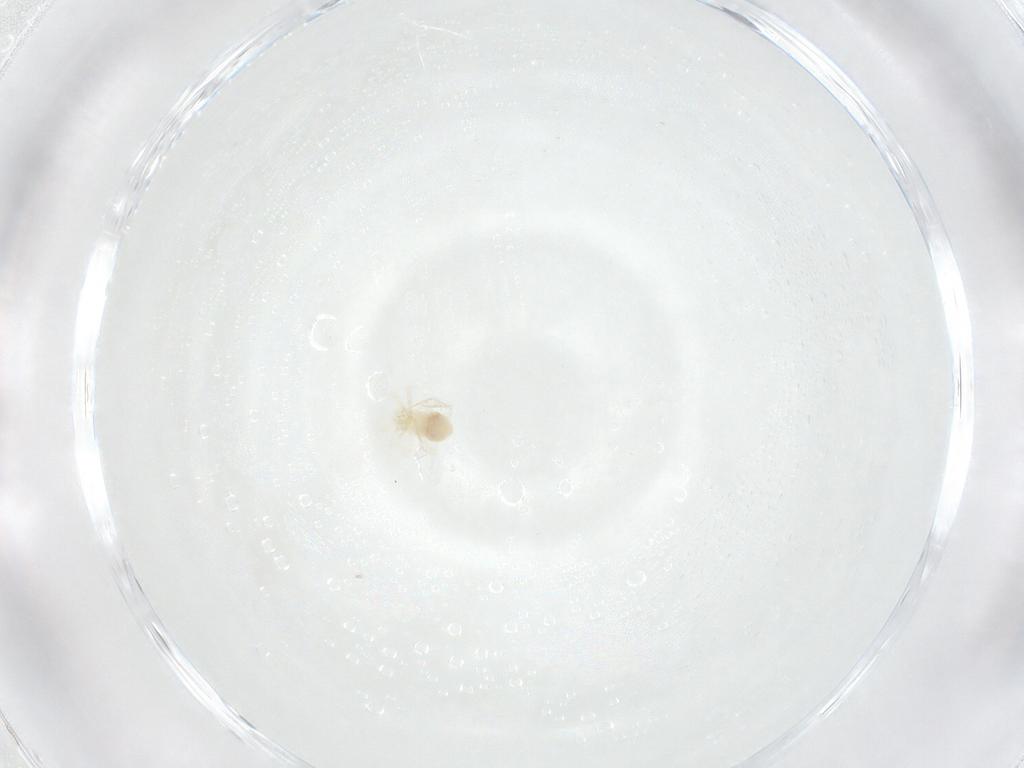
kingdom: Animalia
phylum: Arthropoda
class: Arachnida
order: Trombidiformes
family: Anystidae
